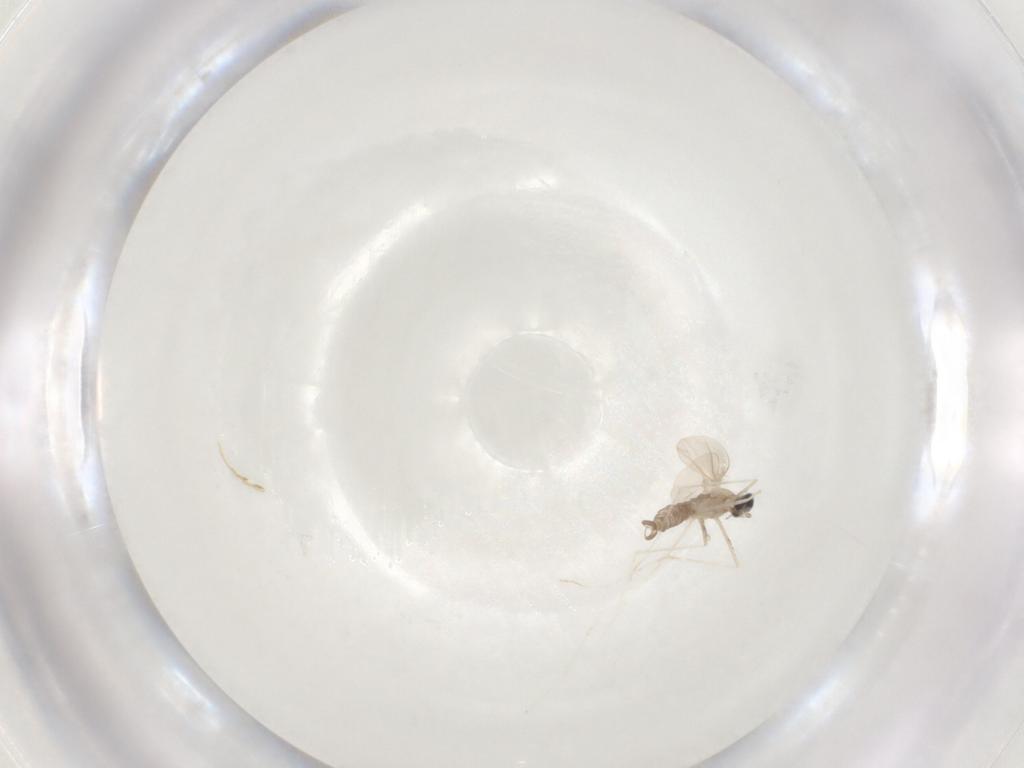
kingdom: Animalia
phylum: Arthropoda
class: Insecta
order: Diptera
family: Cecidomyiidae
